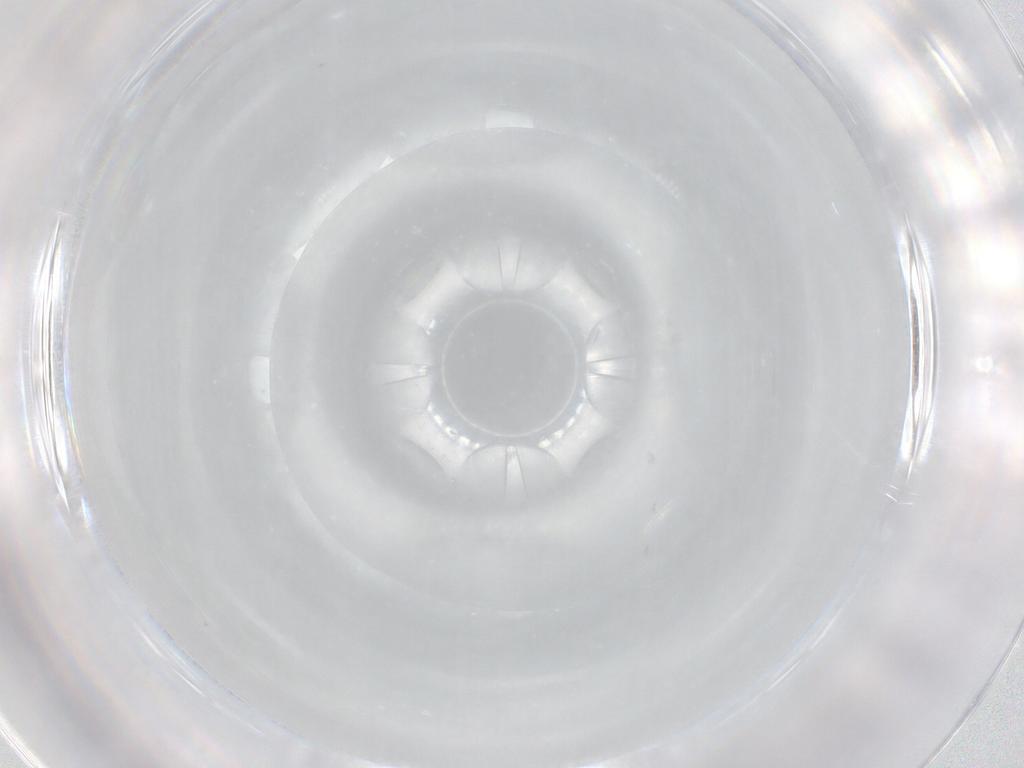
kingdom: Animalia
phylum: Arthropoda
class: Insecta
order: Diptera
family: Phoridae
